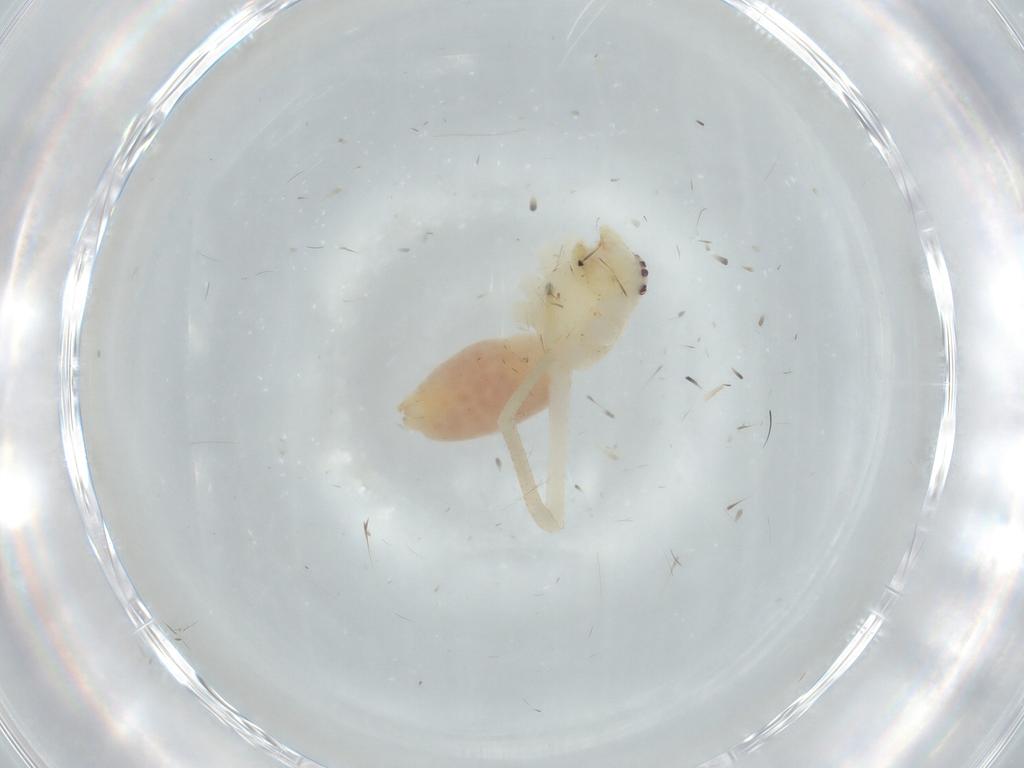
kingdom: Animalia
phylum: Arthropoda
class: Arachnida
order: Araneae
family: Sparassidae
